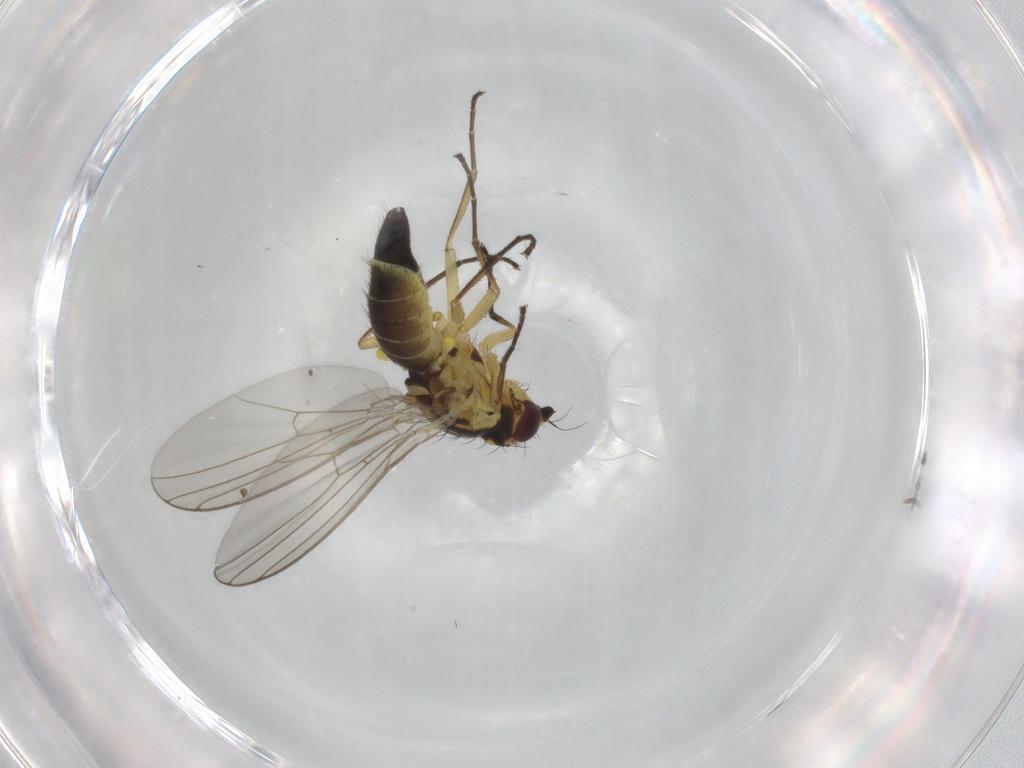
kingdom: Animalia
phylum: Arthropoda
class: Insecta
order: Diptera
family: Agromyzidae
